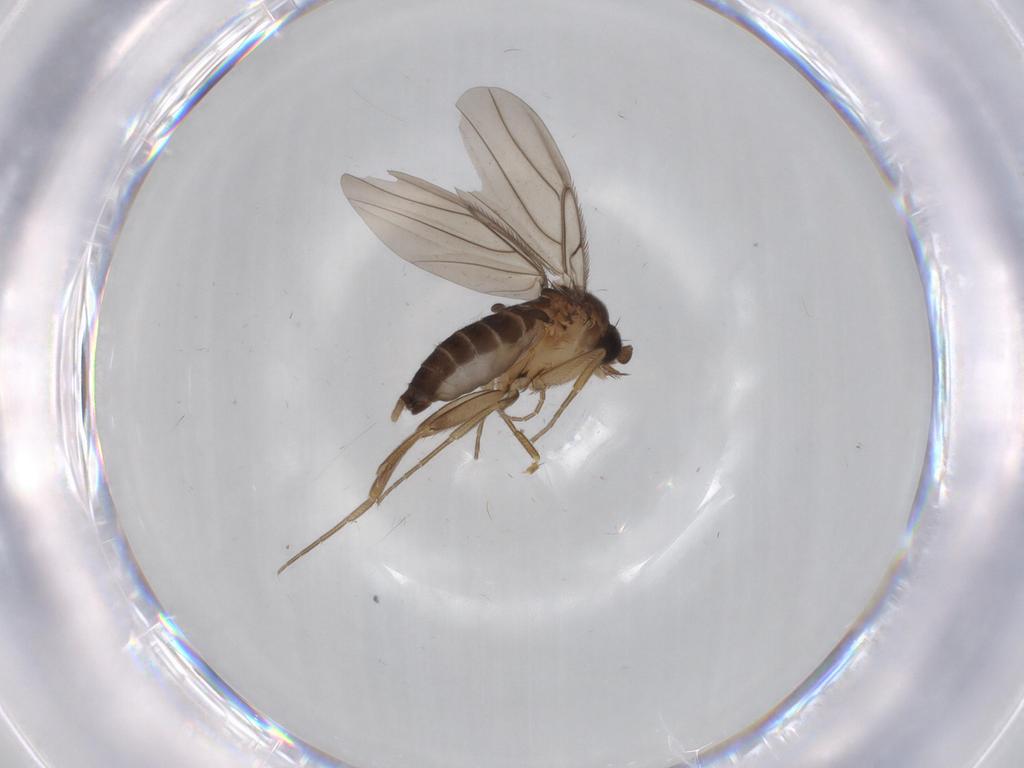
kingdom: Animalia
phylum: Arthropoda
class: Insecta
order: Diptera
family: Phoridae
